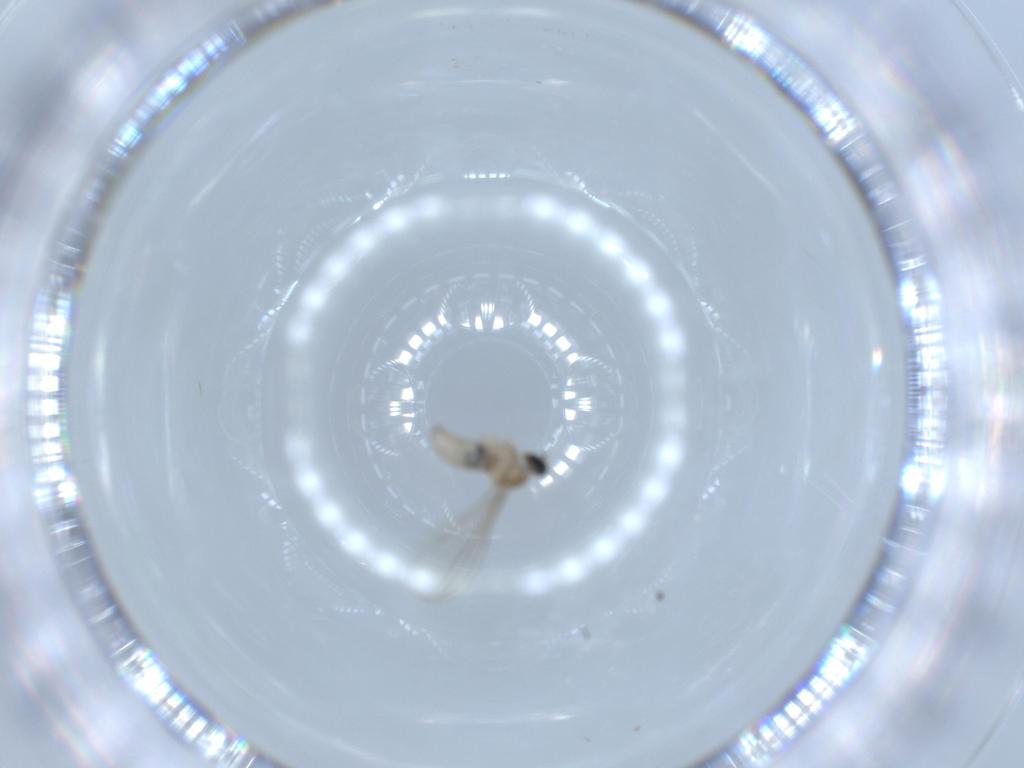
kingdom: Animalia
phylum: Arthropoda
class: Insecta
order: Diptera
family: Cecidomyiidae
